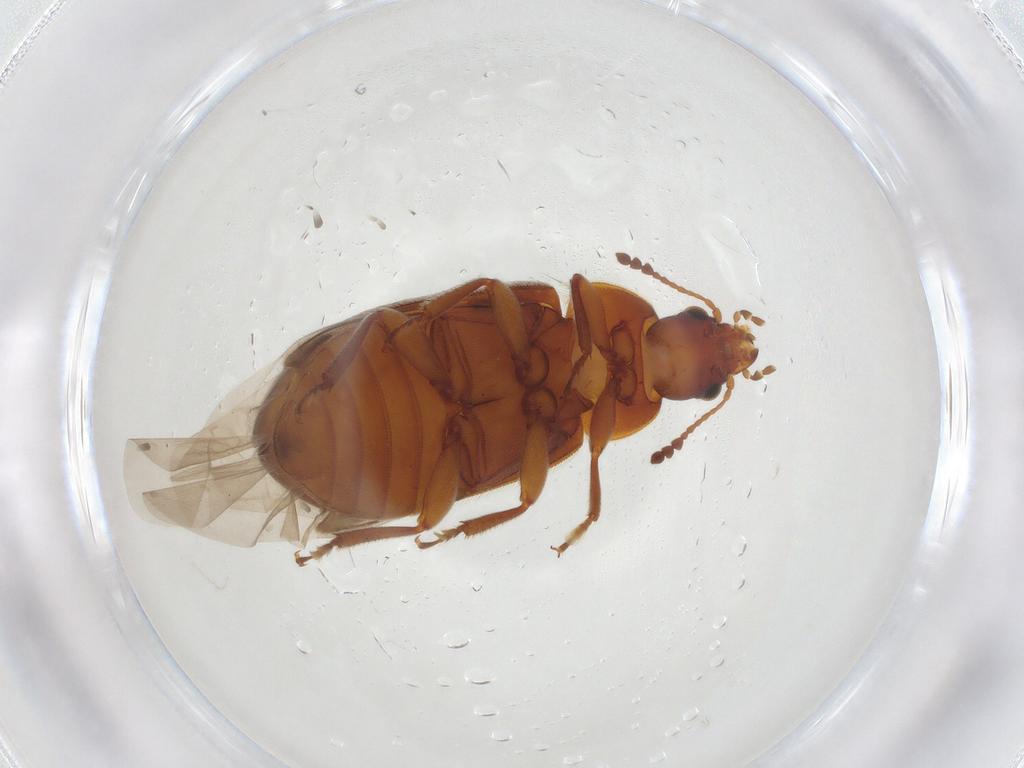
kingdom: Animalia
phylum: Arthropoda
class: Insecta
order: Coleoptera
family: Byturidae
